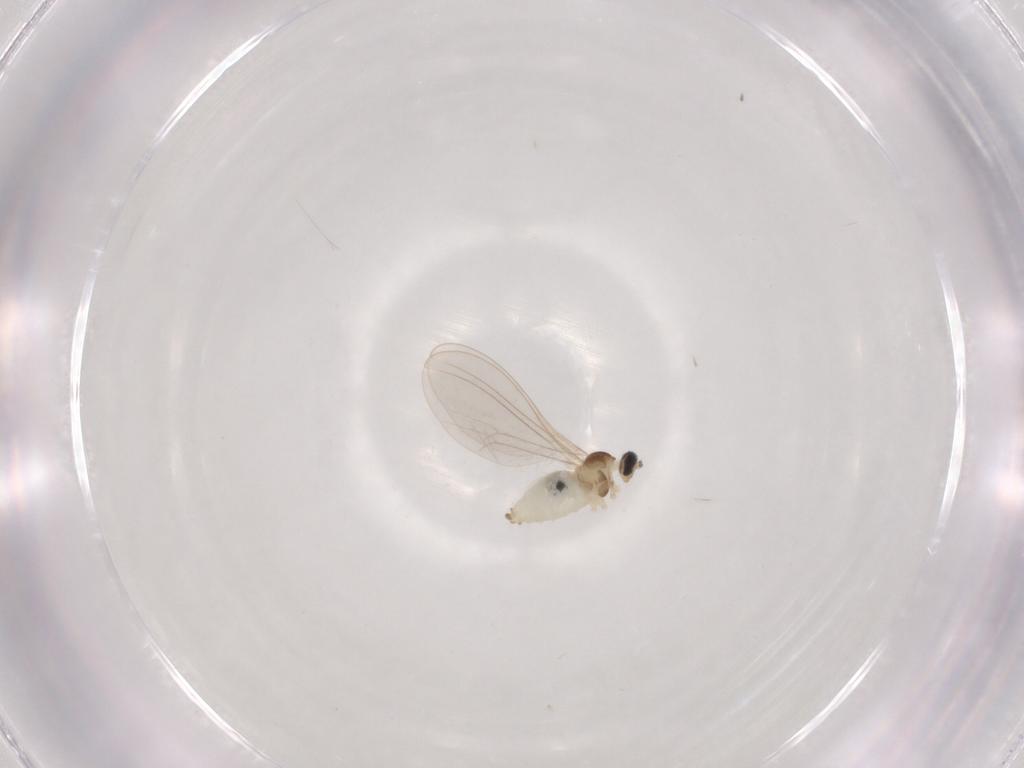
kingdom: Animalia
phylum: Arthropoda
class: Insecta
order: Diptera
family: Cecidomyiidae
